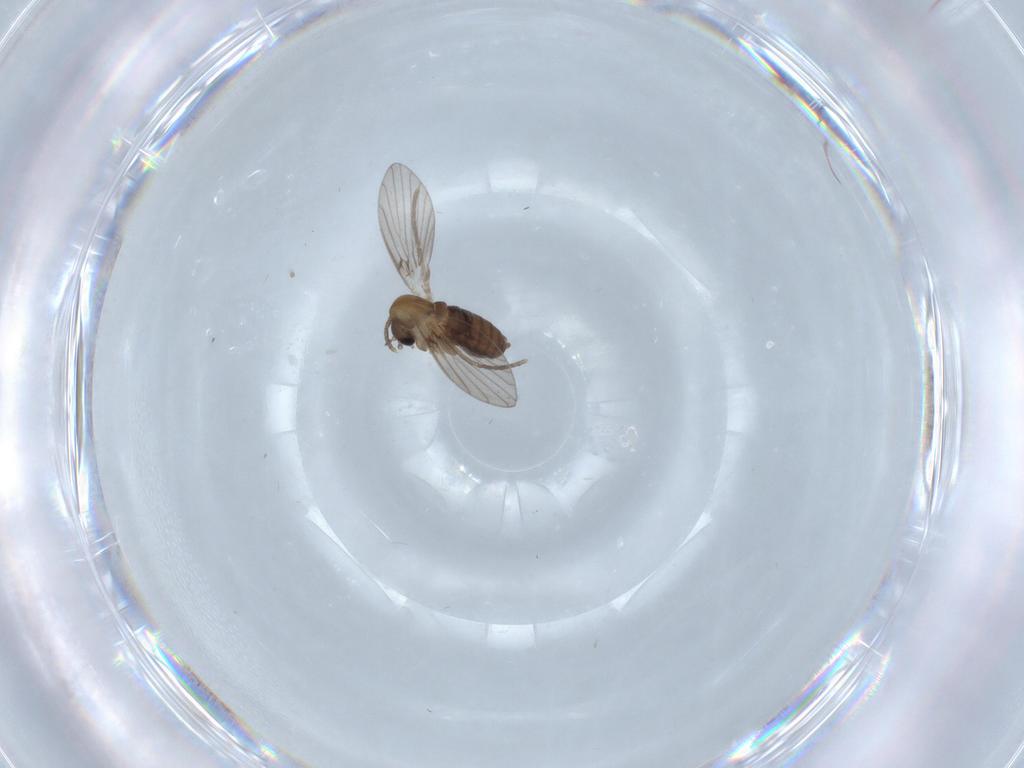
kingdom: Animalia
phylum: Arthropoda
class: Insecta
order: Diptera
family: Psychodidae
